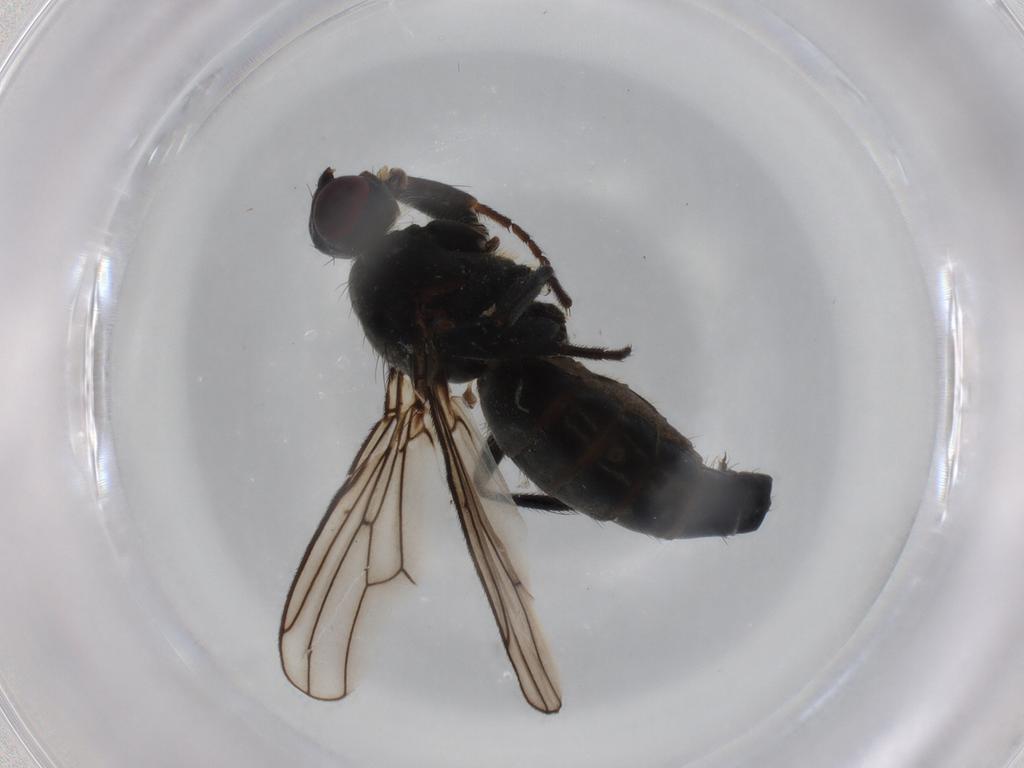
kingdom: Animalia
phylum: Arthropoda
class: Insecta
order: Diptera
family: Scathophagidae
